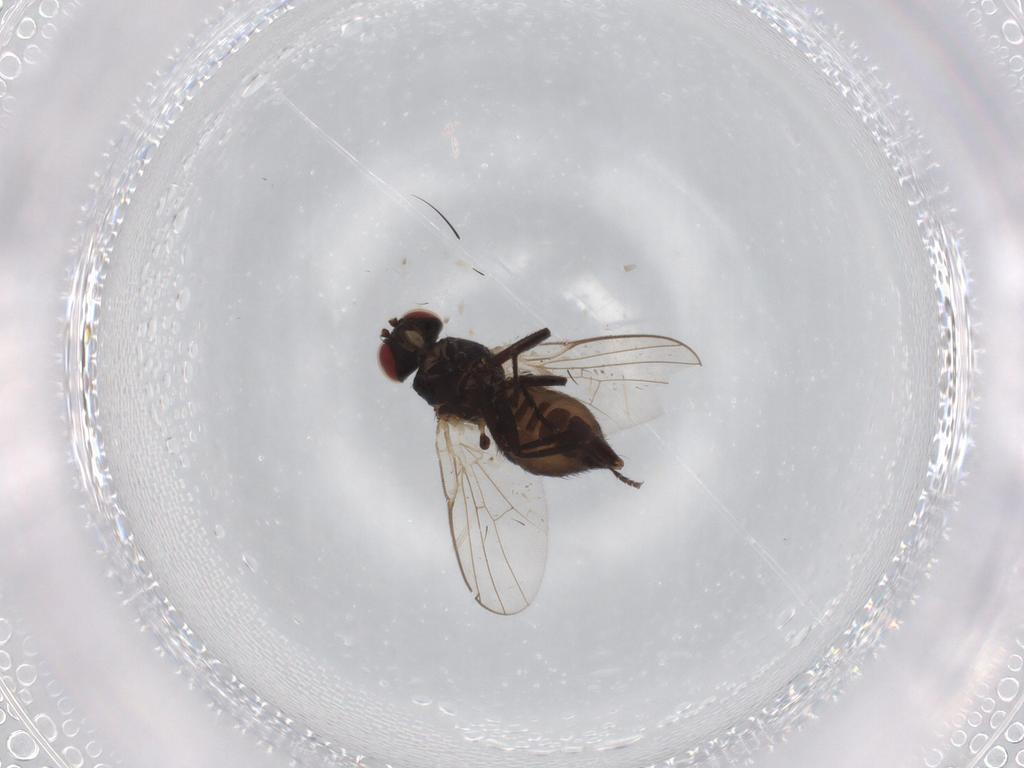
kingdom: Animalia
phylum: Arthropoda
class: Insecta
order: Diptera
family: Ceratopogonidae
